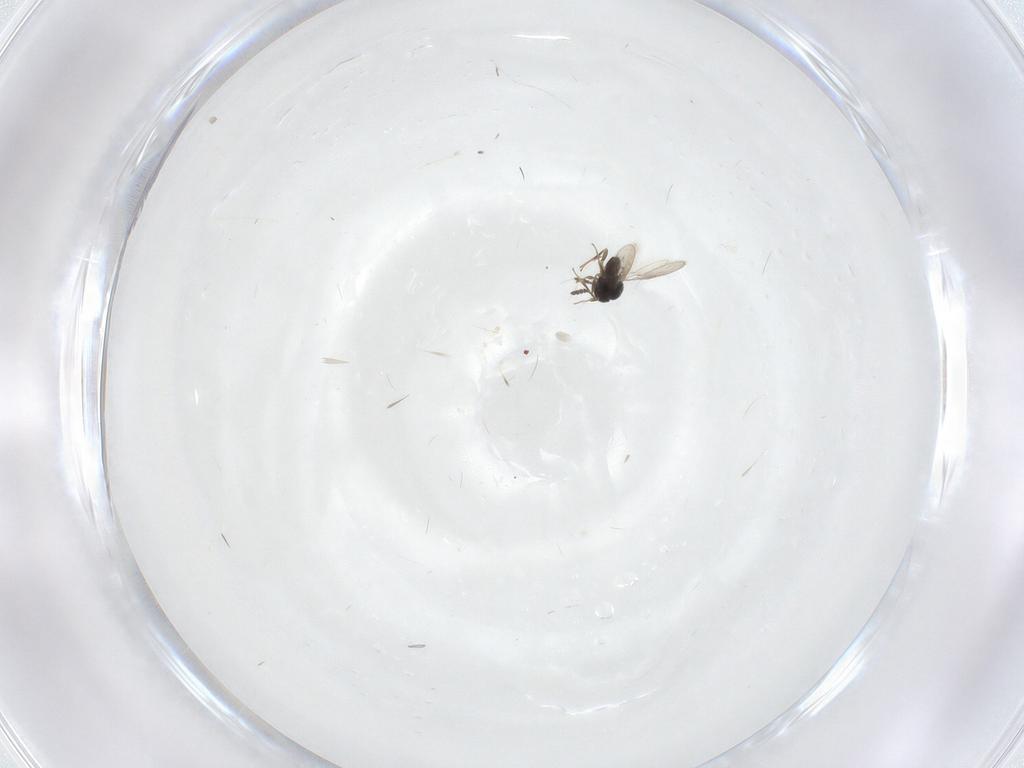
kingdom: Animalia
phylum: Arthropoda
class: Insecta
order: Hymenoptera
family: Scelionidae
